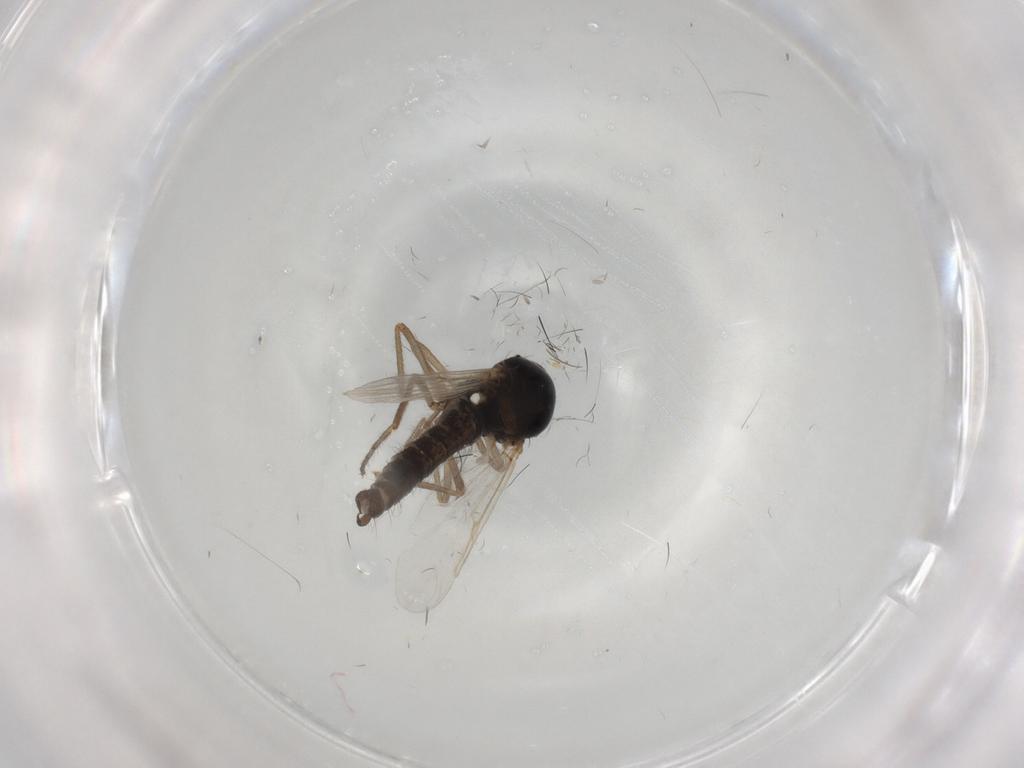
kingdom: Animalia
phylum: Arthropoda
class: Insecta
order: Diptera
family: Ceratopogonidae
